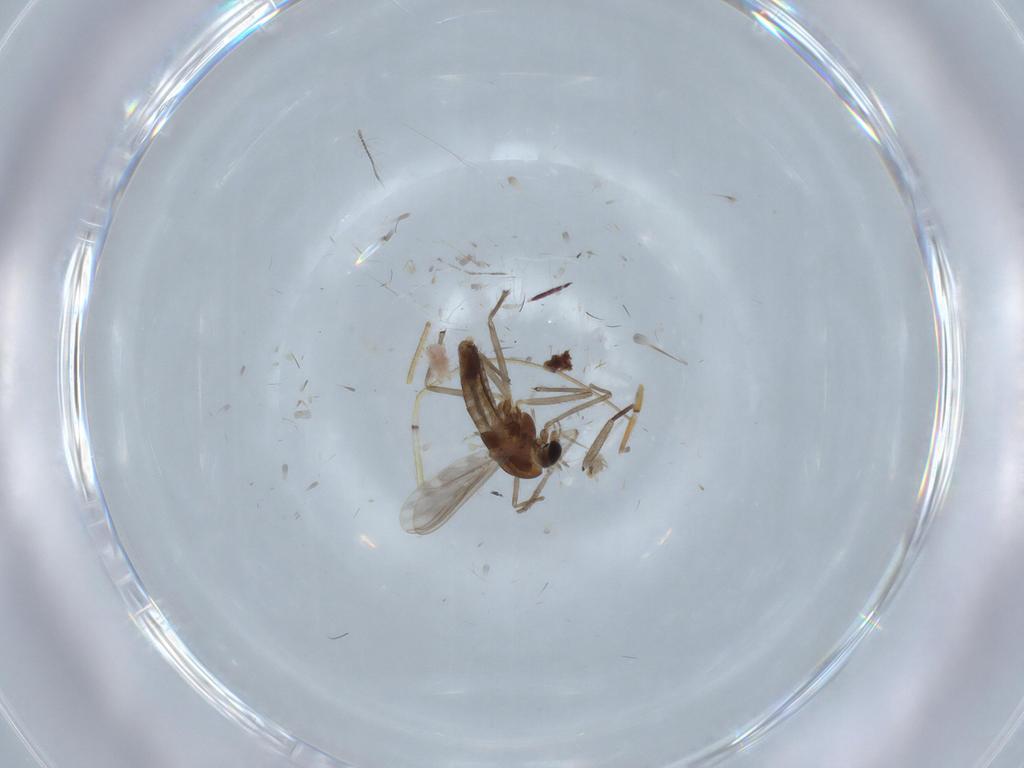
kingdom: Animalia
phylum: Arthropoda
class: Insecta
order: Diptera
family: Chironomidae
